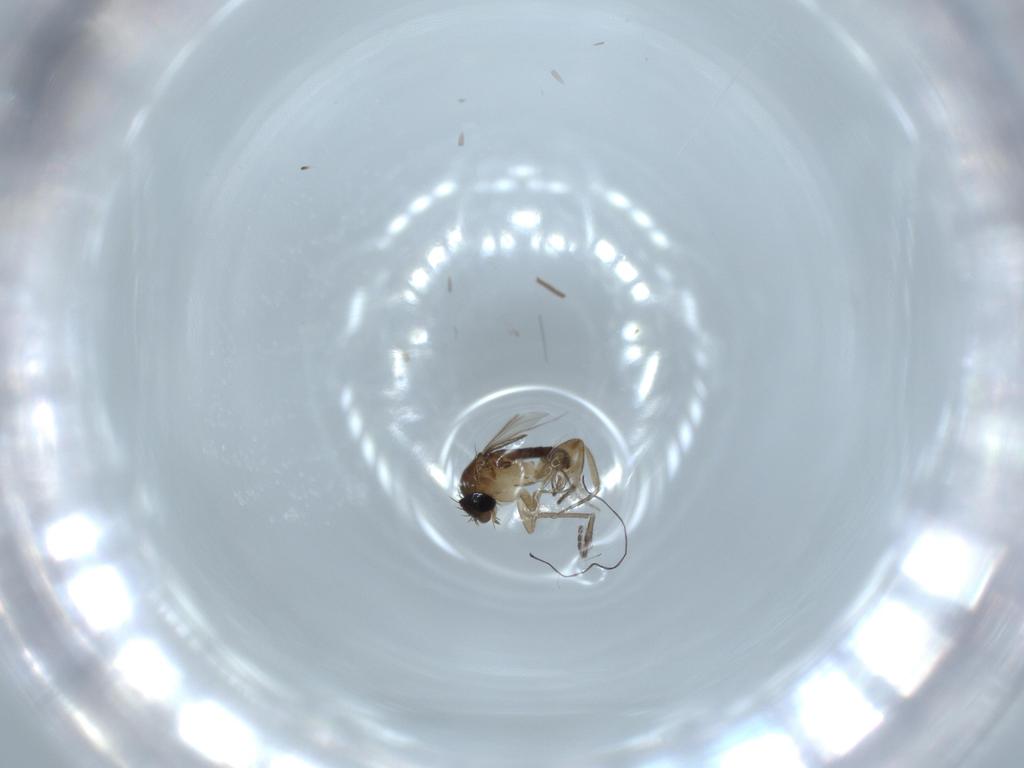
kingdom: Animalia
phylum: Arthropoda
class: Insecta
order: Diptera
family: Sciaridae
